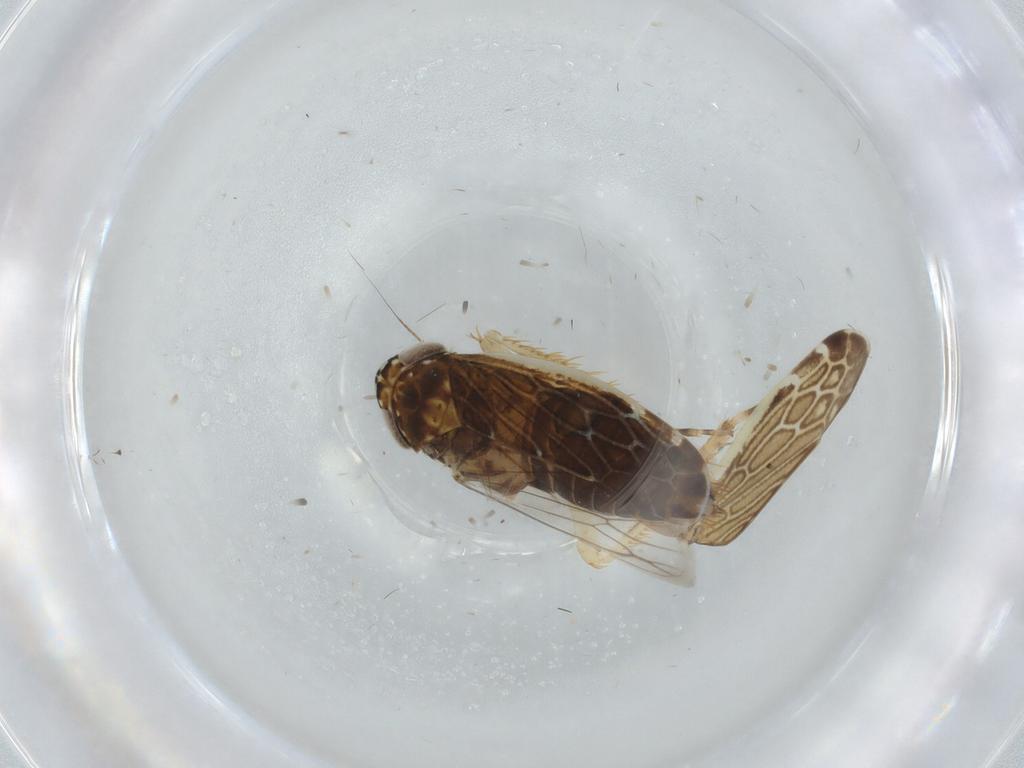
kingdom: Animalia
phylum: Arthropoda
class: Insecta
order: Hemiptera
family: Cicadellidae
